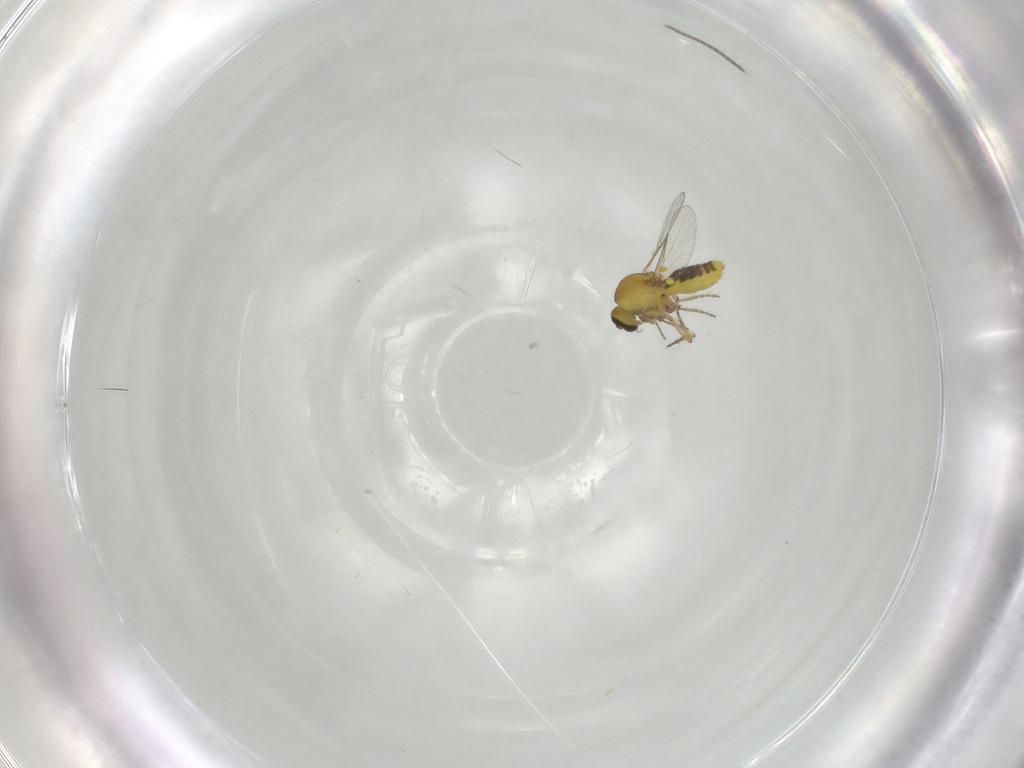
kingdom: Animalia
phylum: Arthropoda
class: Insecta
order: Diptera
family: Sciaridae
